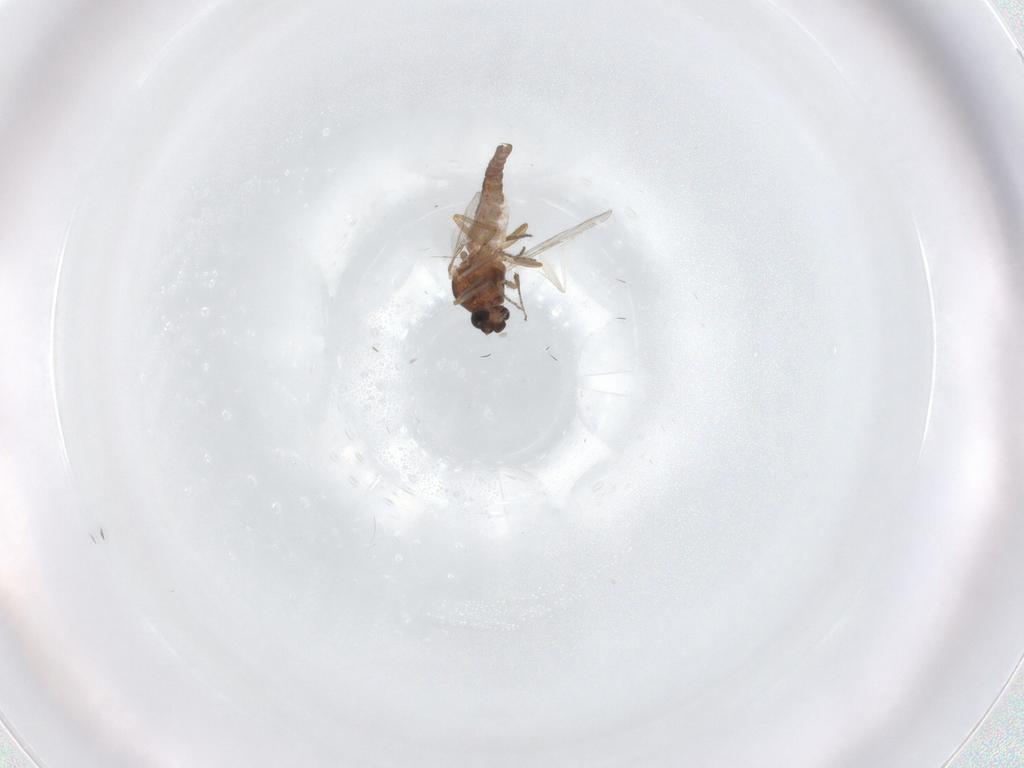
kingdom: Animalia
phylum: Arthropoda
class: Insecta
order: Diptera
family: Ceratopogonidae
